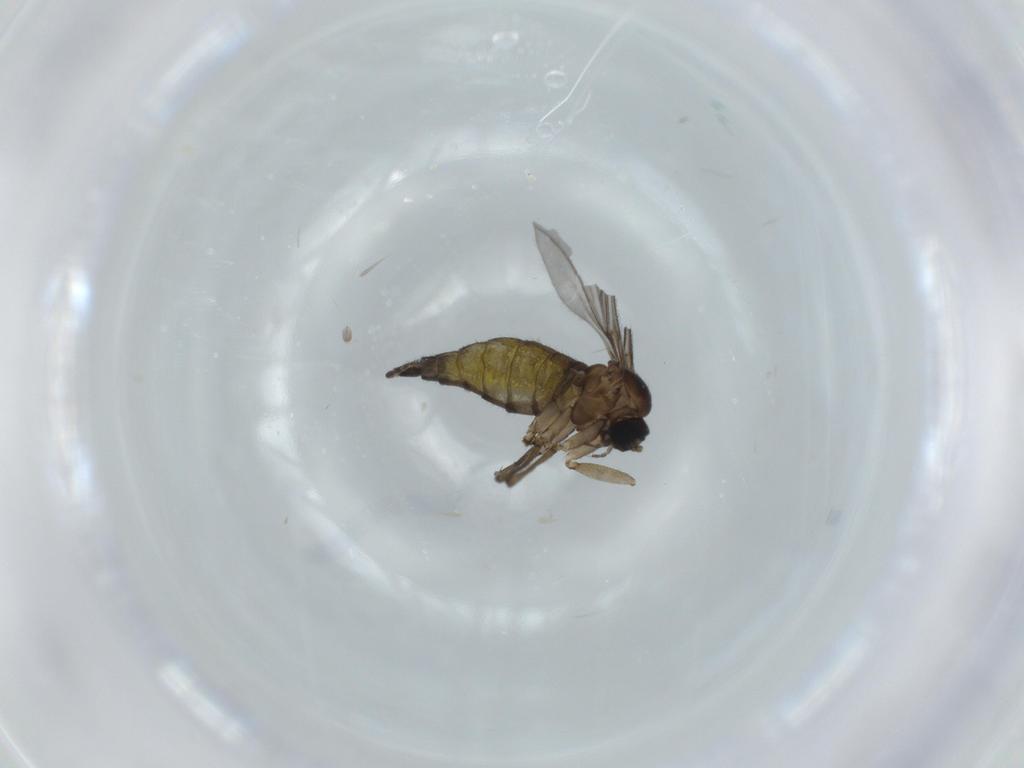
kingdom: Animalia
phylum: Arthropoda
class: Insecta
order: Diptera
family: Sciaridae
